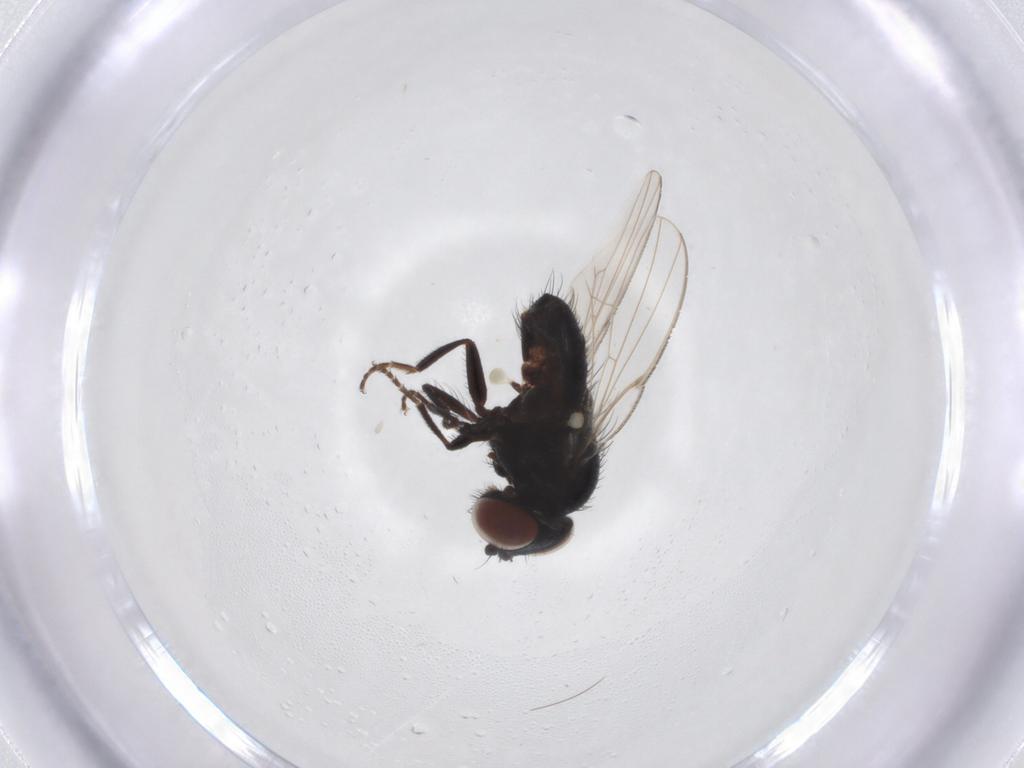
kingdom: Animalia
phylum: Arthropoda
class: Insecta
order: Diptera
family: Milichiidae
